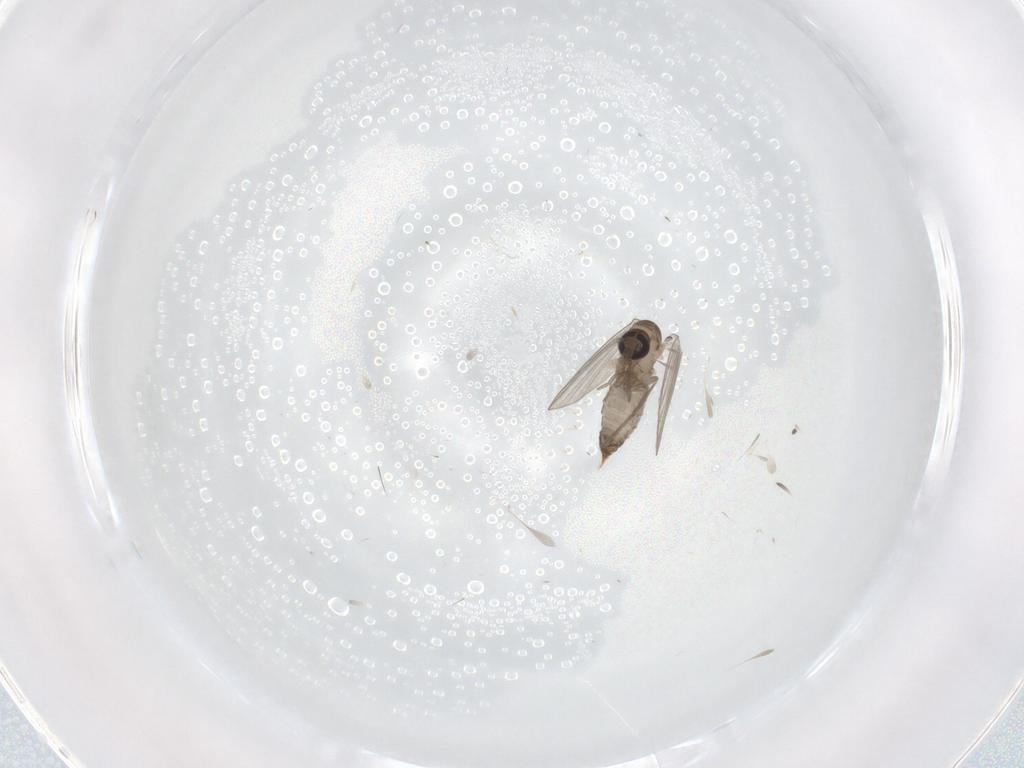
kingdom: Animalia
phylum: Arthropoda
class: Insecta
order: Diptera
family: Psychodidae
